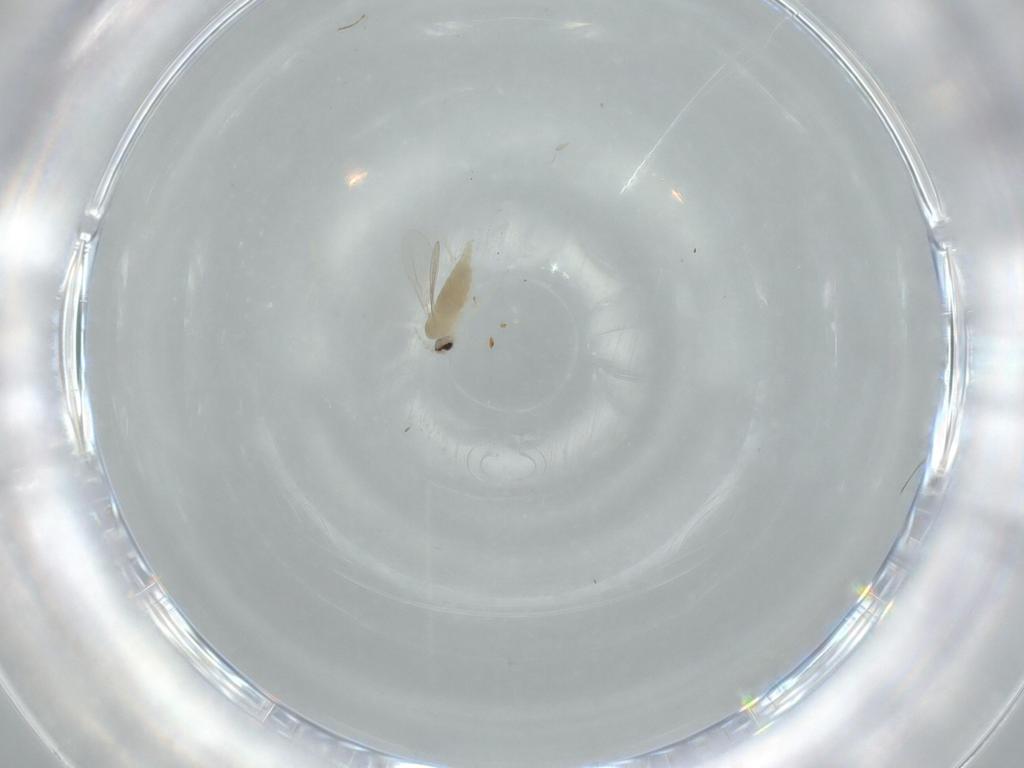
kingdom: Animalia
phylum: Arthropoda
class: Insecta
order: Diptera
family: Cecidomyiidae
